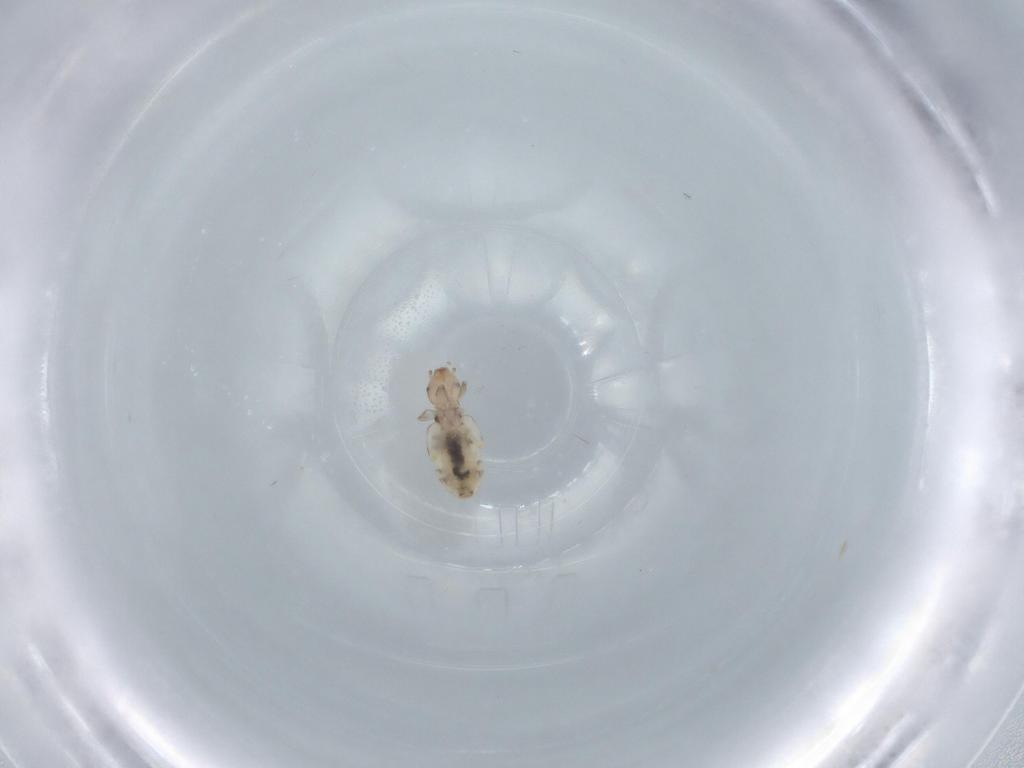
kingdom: Animalia
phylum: Arthropoda
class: Insecta
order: Psocodea
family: Liposcelididae
